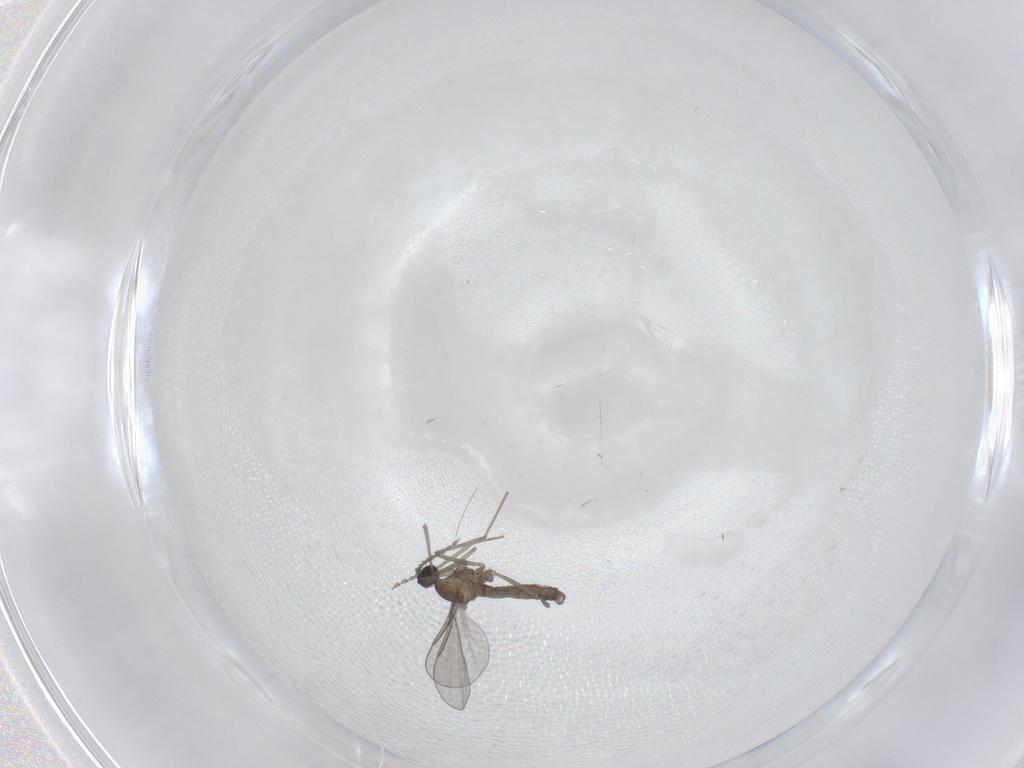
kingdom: Animalia
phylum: Arthropoda
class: Insecta
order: Diptera
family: Cecidomyiidae
